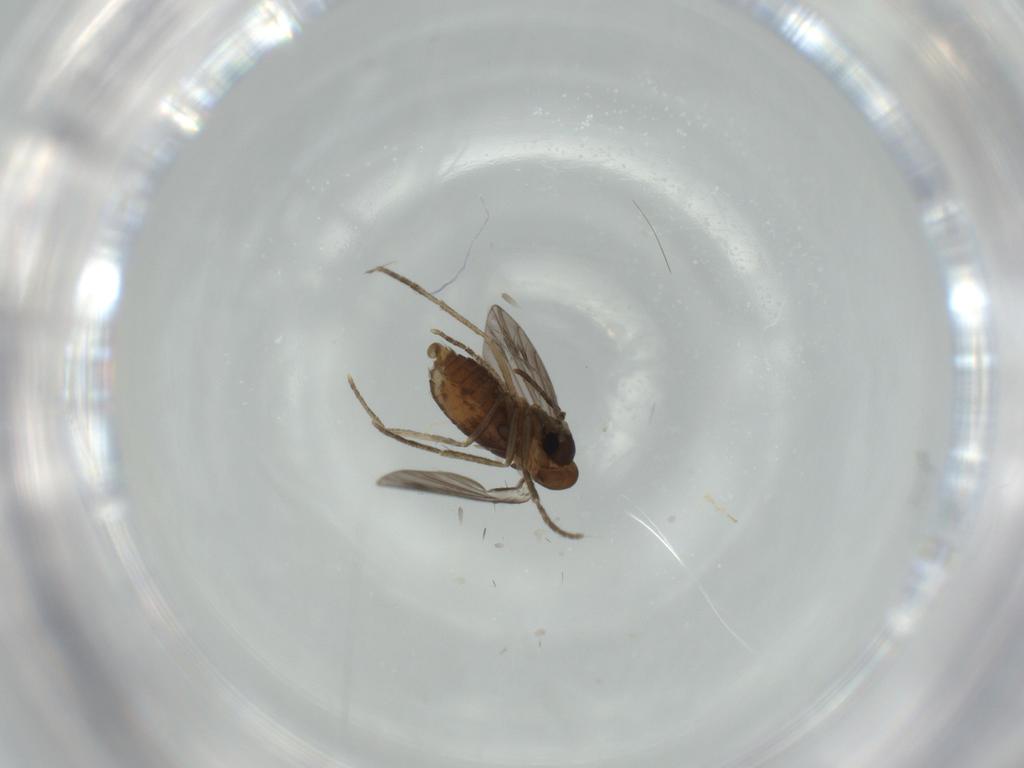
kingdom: Animalia
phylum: Arthropoda
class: Insecta
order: Diptera
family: Psychodidae
